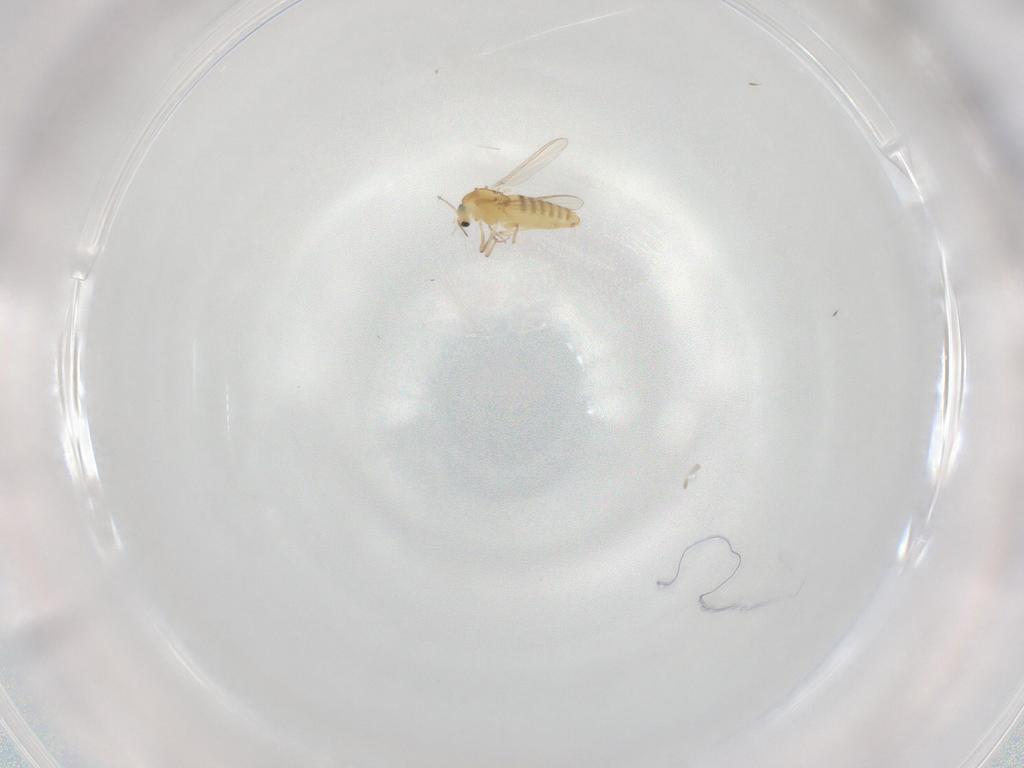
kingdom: Animalia
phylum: Arthropoda
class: Insecta
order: Diptera
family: Chironomidae
